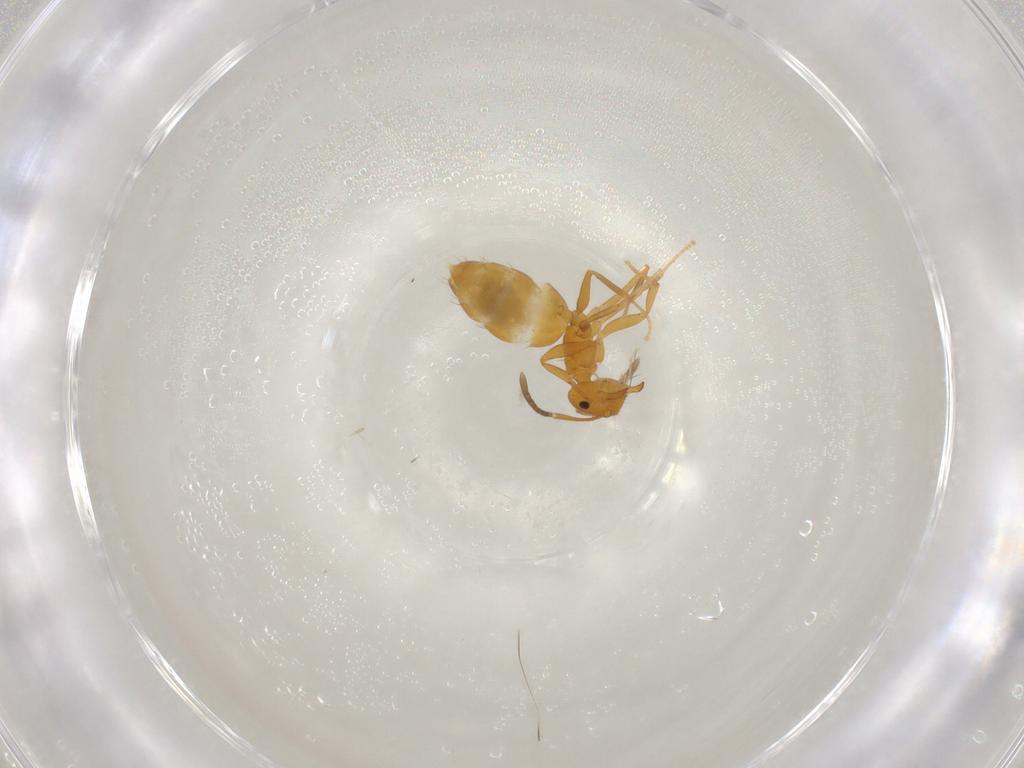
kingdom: Animalia
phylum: Arthropoda
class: Insecta
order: Hymenoptera
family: Formicidae
